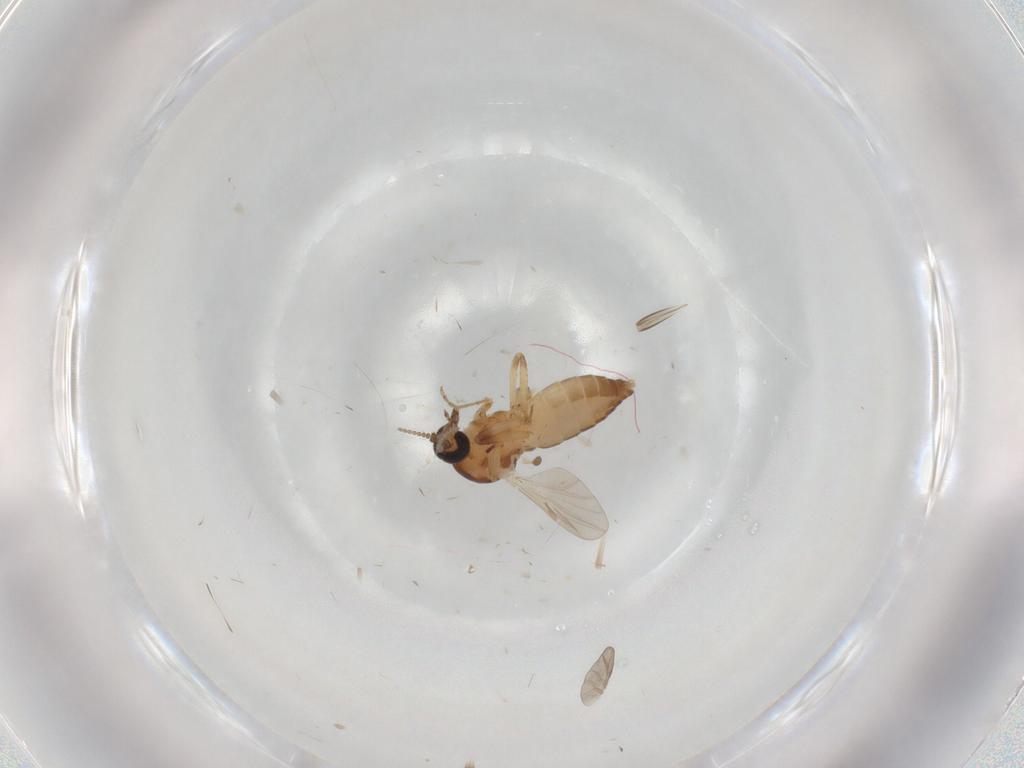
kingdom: Animalia
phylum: Arthropoda
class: Insecta
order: Diptera
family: Ceratopogonidae
